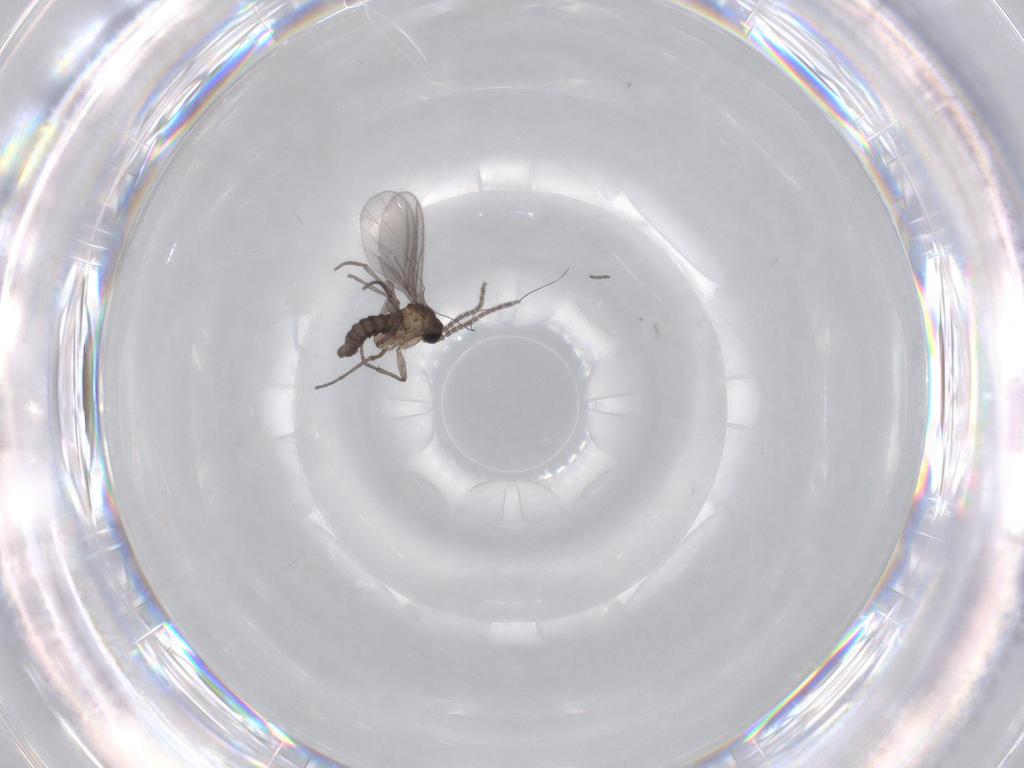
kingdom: Animalia
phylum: Arthropoda
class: Insecta
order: Diptera
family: Sciaridae
